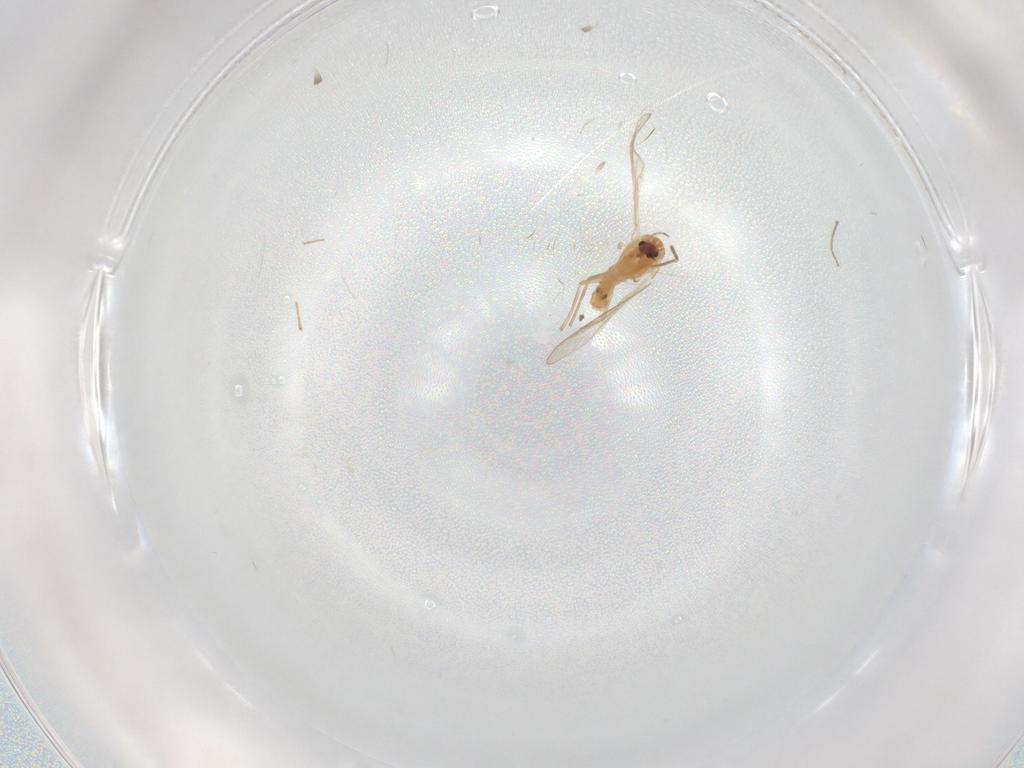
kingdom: Animalia
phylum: Arthropoda
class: Insecta
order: Diptera
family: Chironomidae
